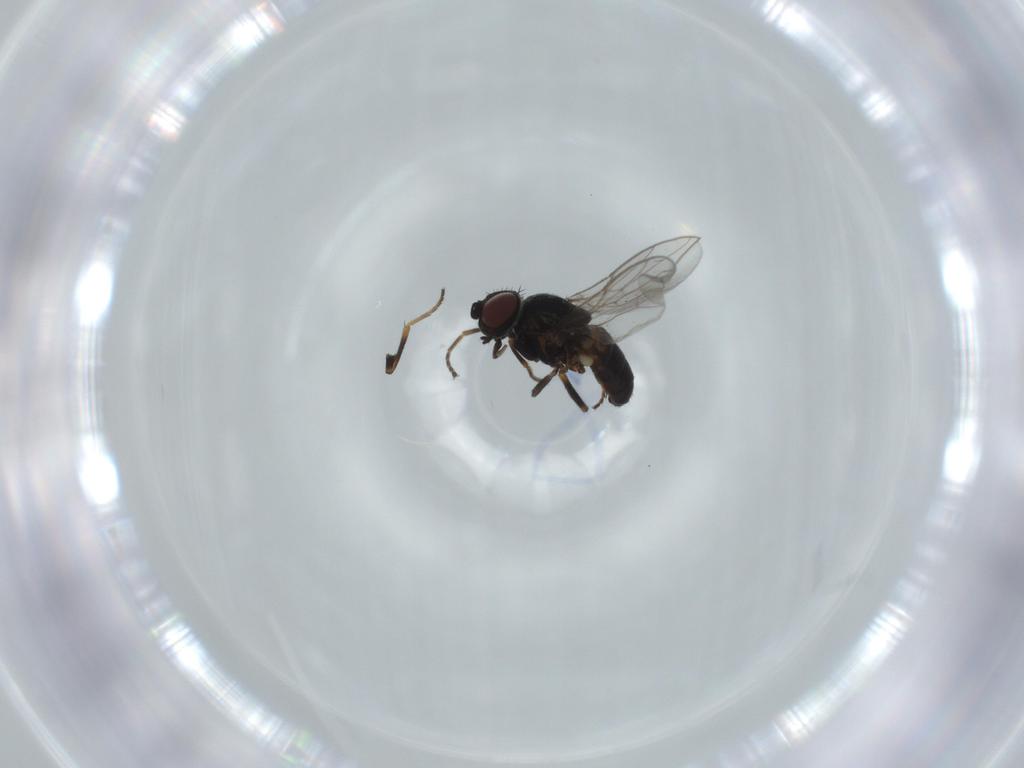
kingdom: Animalia
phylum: Arthropoda
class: Insecta
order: Diptera
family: Chloropidae
